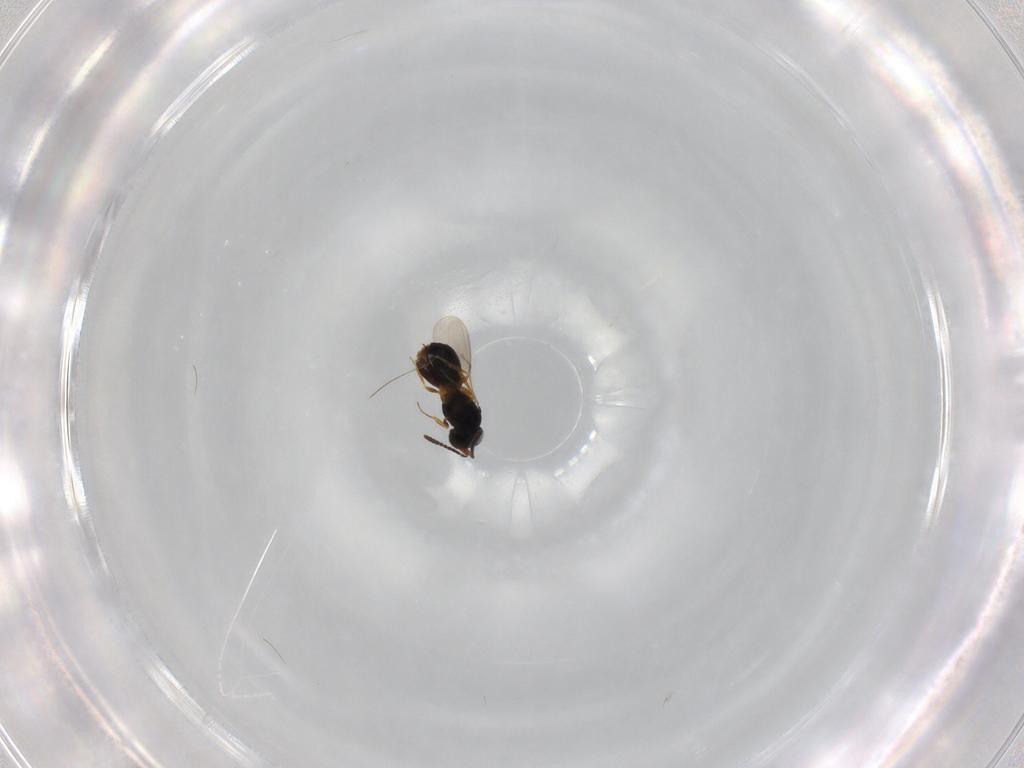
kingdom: Animalia
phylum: Arthropoda
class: Insecta
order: Hymenoptera
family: Scelionidae
